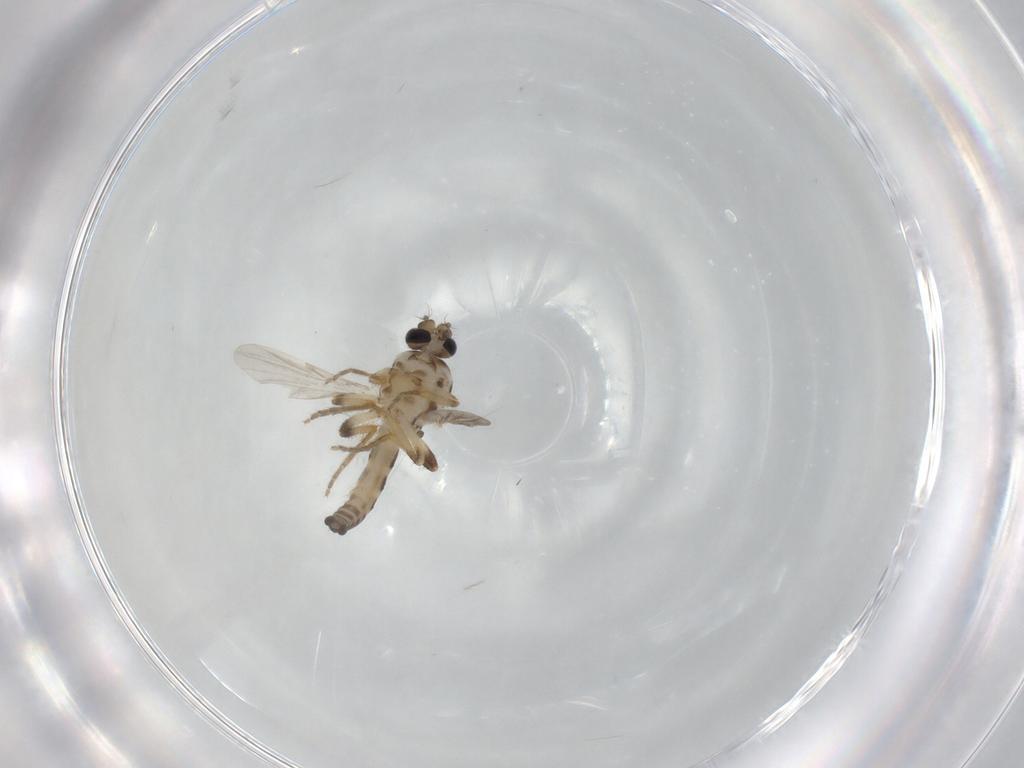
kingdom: Animalia
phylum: Arthropoda
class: Insecta
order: Diptera
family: Ceratopogonidae
